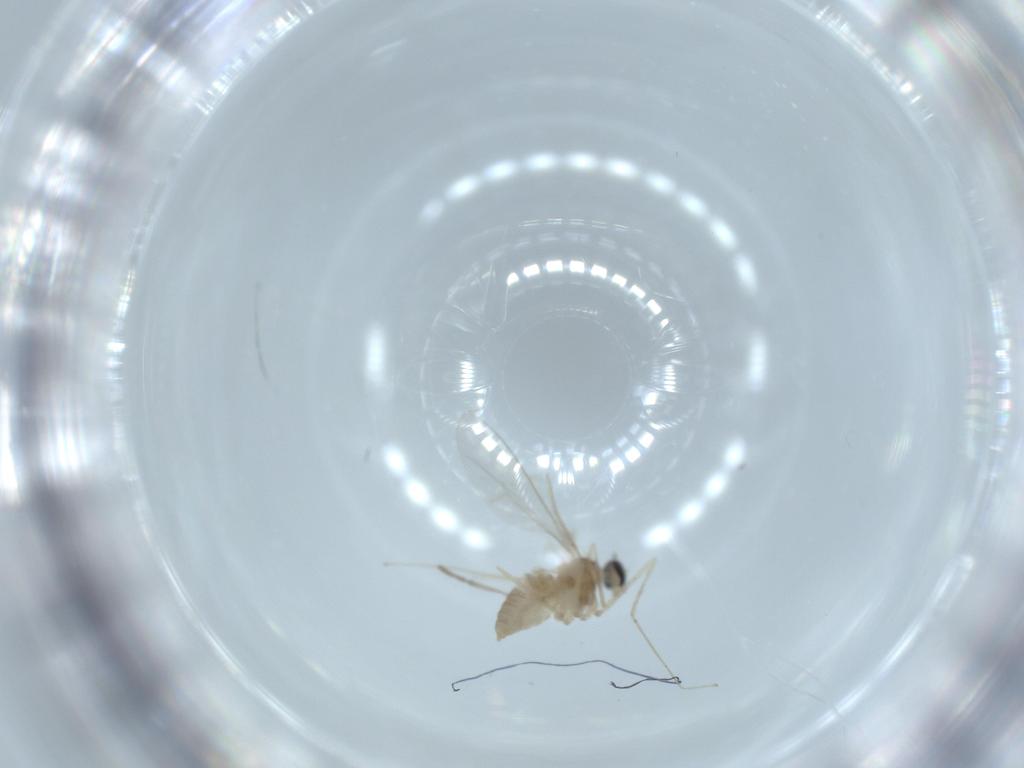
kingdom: Animalia
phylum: Arthropoda
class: Insecta
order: Diptera
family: Cecidomyiidae
